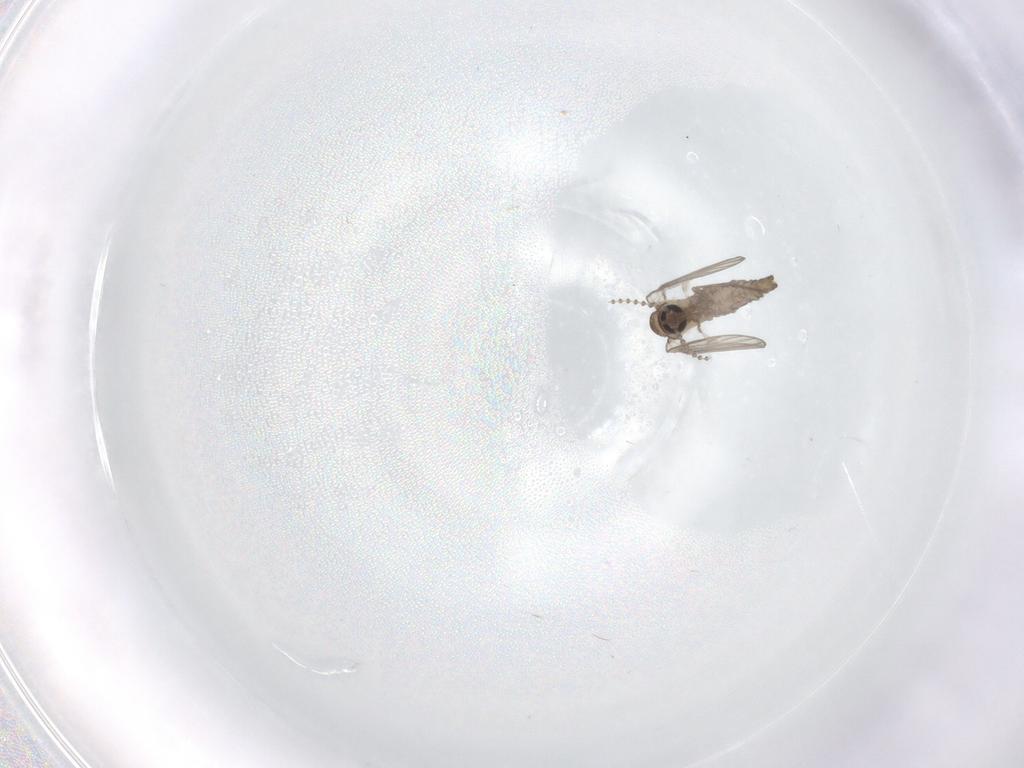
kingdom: Animalia
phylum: Arthropoda
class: Insecta
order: Diptera
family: Psychodidae
